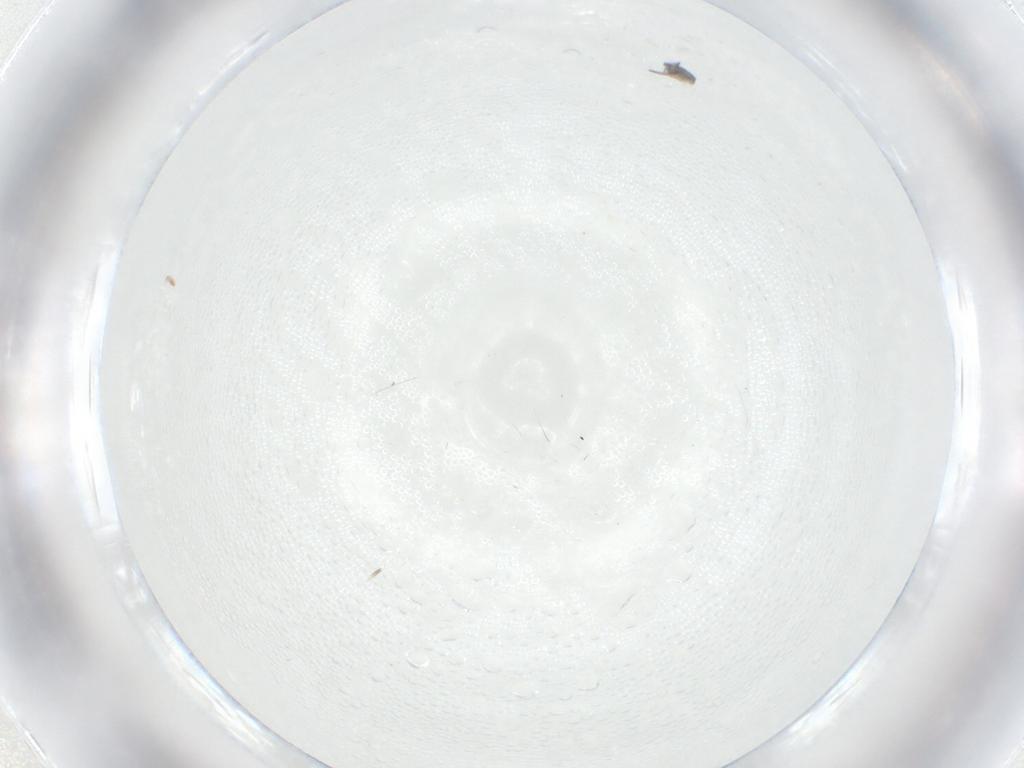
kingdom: Animalia
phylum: Arthropoda
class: Insecta
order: Hemiptera
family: Aleyrodidae
